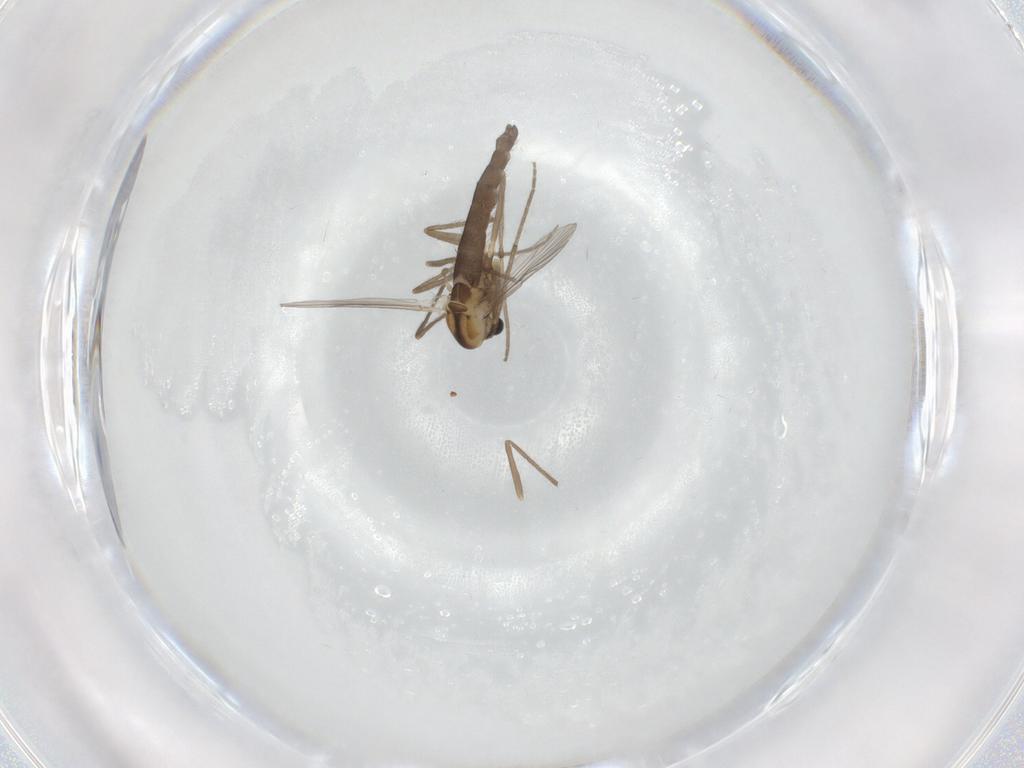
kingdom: Animalia
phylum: Arthropoda
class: Insecta
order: Diptera
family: Chironomidae
